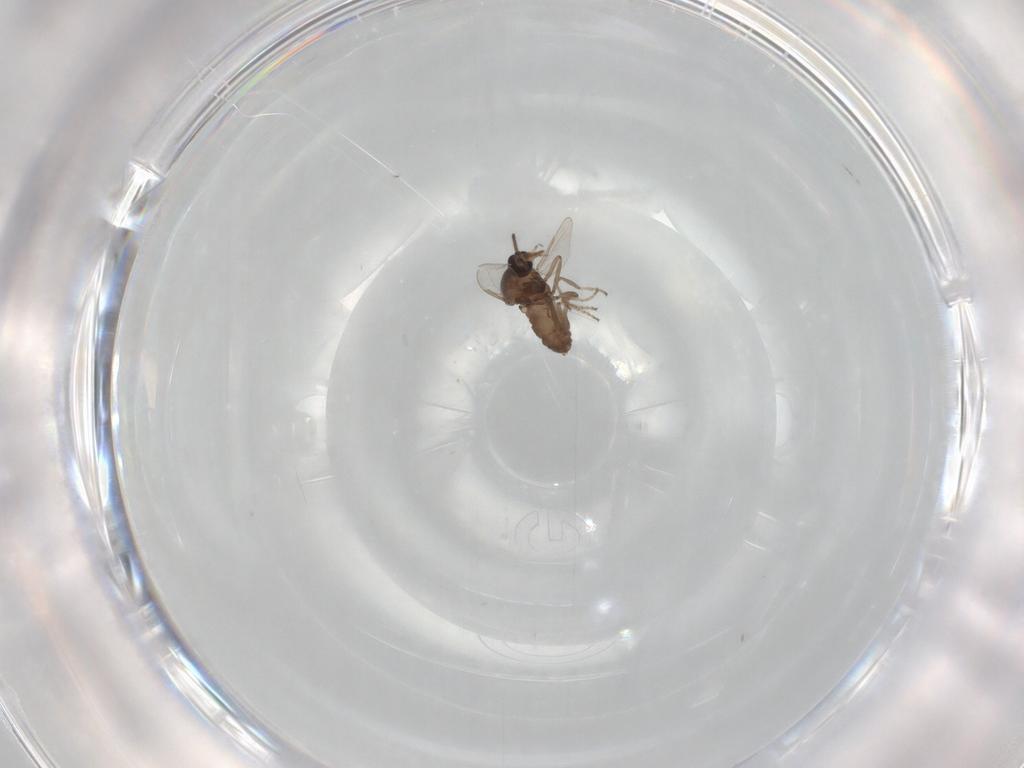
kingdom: Animalia
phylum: Arthropoda
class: Insecta
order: Diptera
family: Ceratopogonidae
